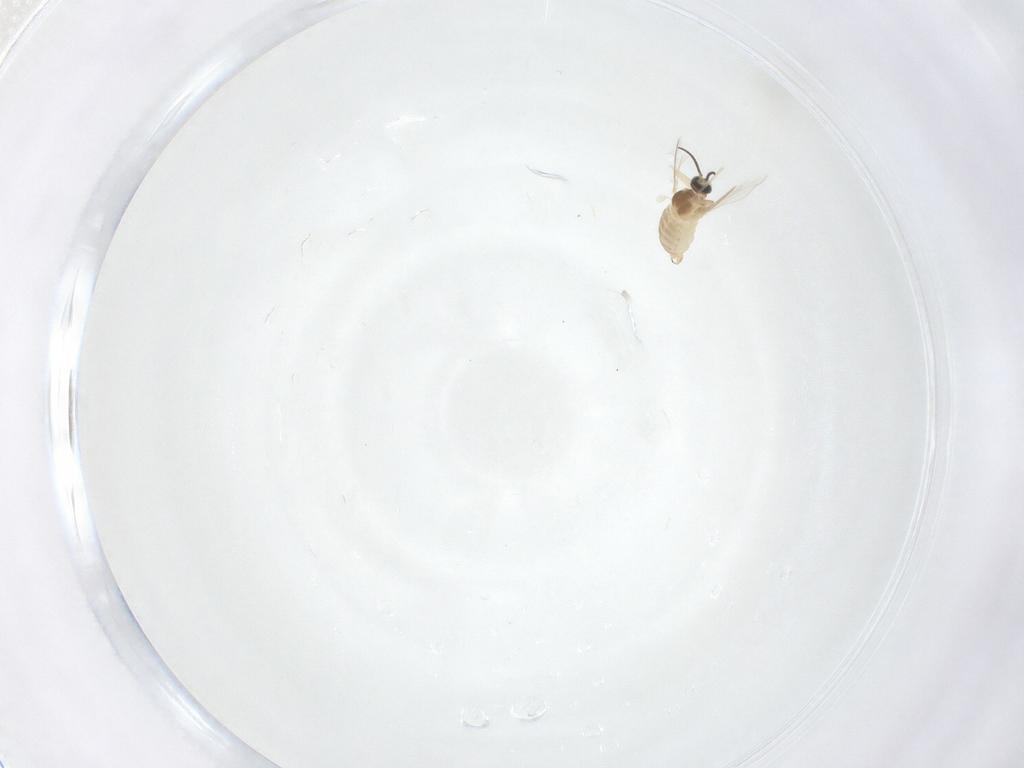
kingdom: Animalia
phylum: Arthropoda
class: Insecta
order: Diptera
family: Cecidomyiidae
